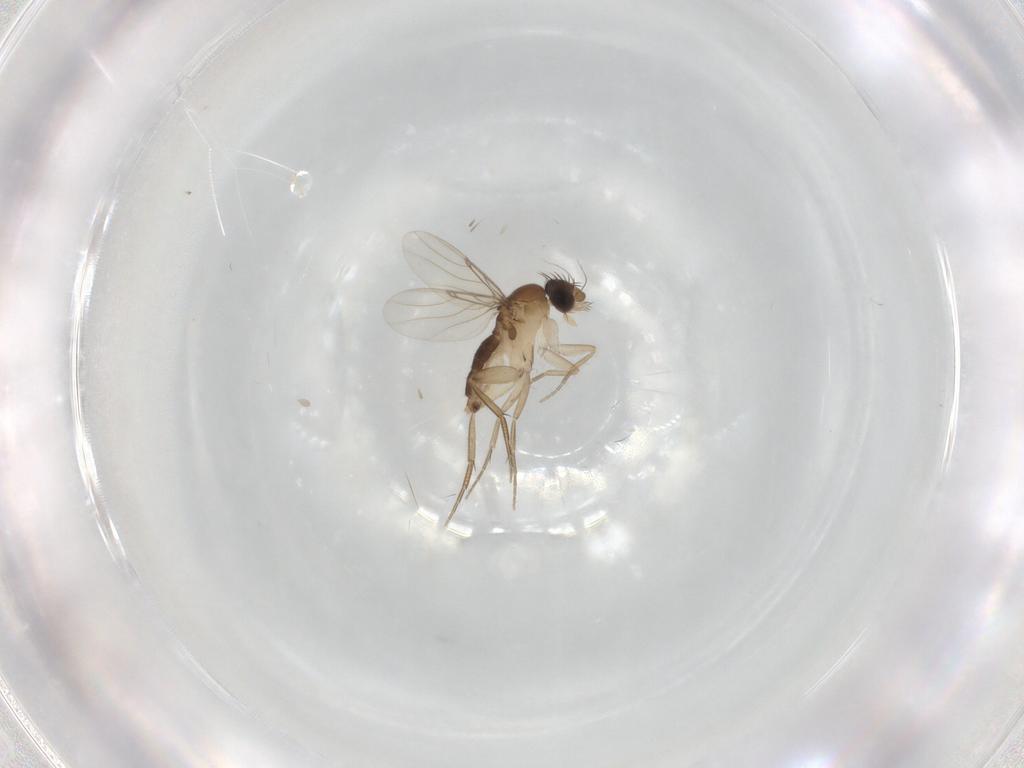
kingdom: Animalia
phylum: Arthropoda
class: Insecta
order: Diptera
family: Phoridae
